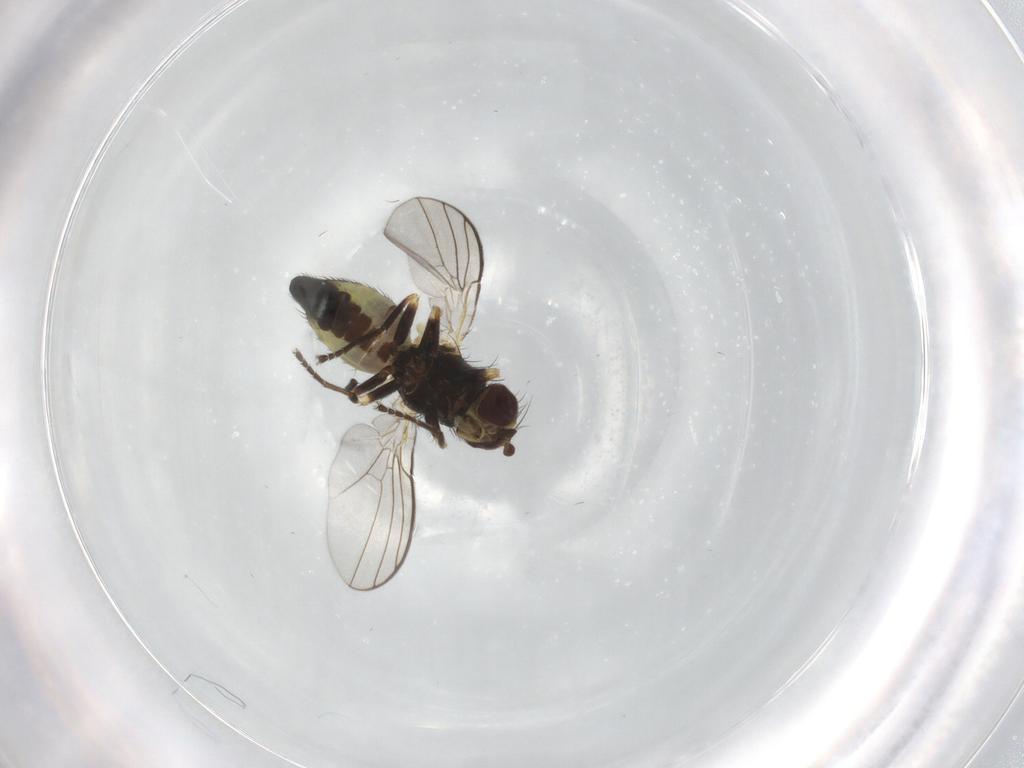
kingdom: Animalia
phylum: Arthropoda
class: Insecta
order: Diptera
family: Agromyzidae
